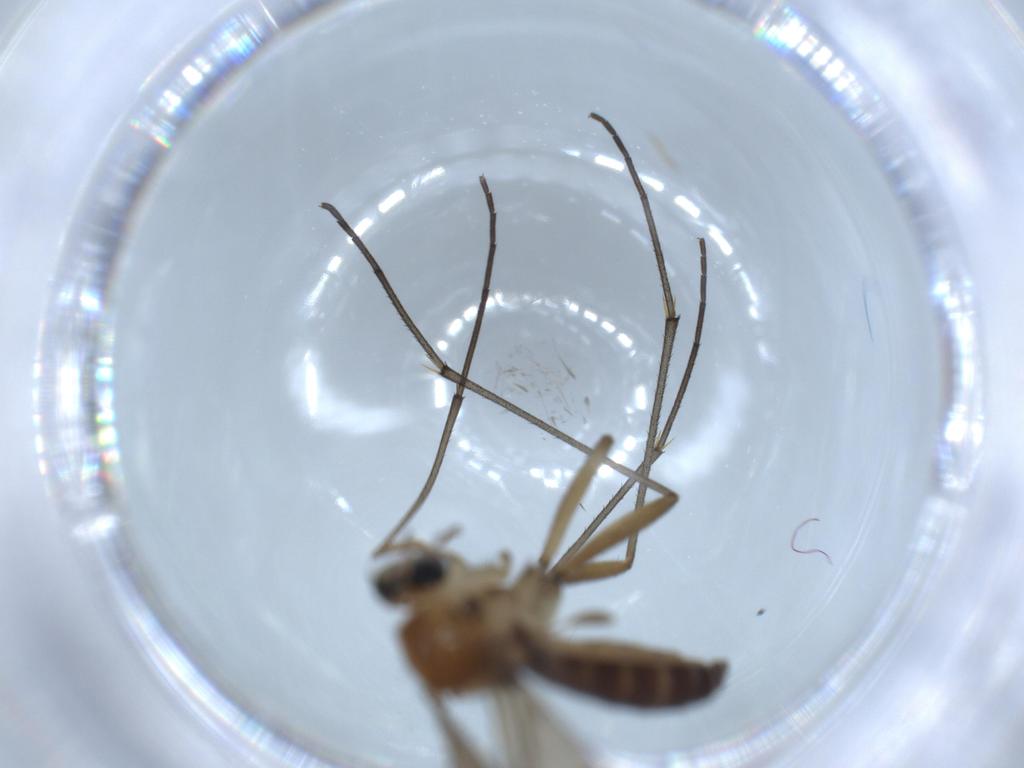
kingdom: Animalia
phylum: Arthropoda
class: Insecta
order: Diptera
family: Sciaridae
